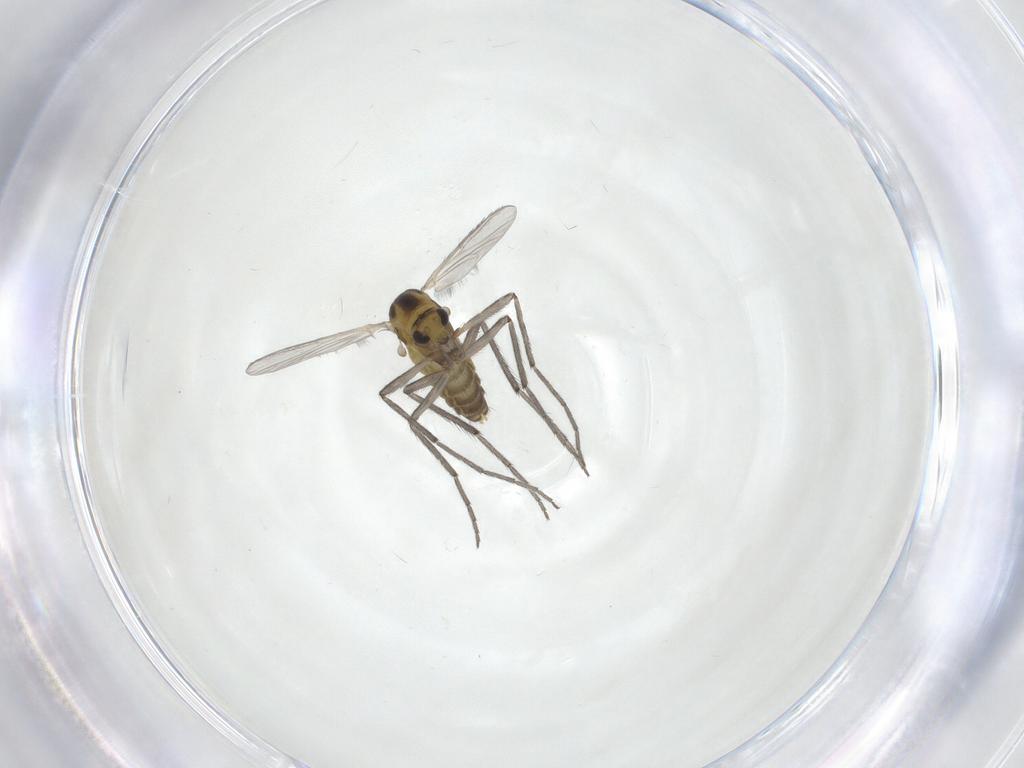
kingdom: Animalia
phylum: Arthropoda
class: Insecta
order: Diptera
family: Chironomidae
